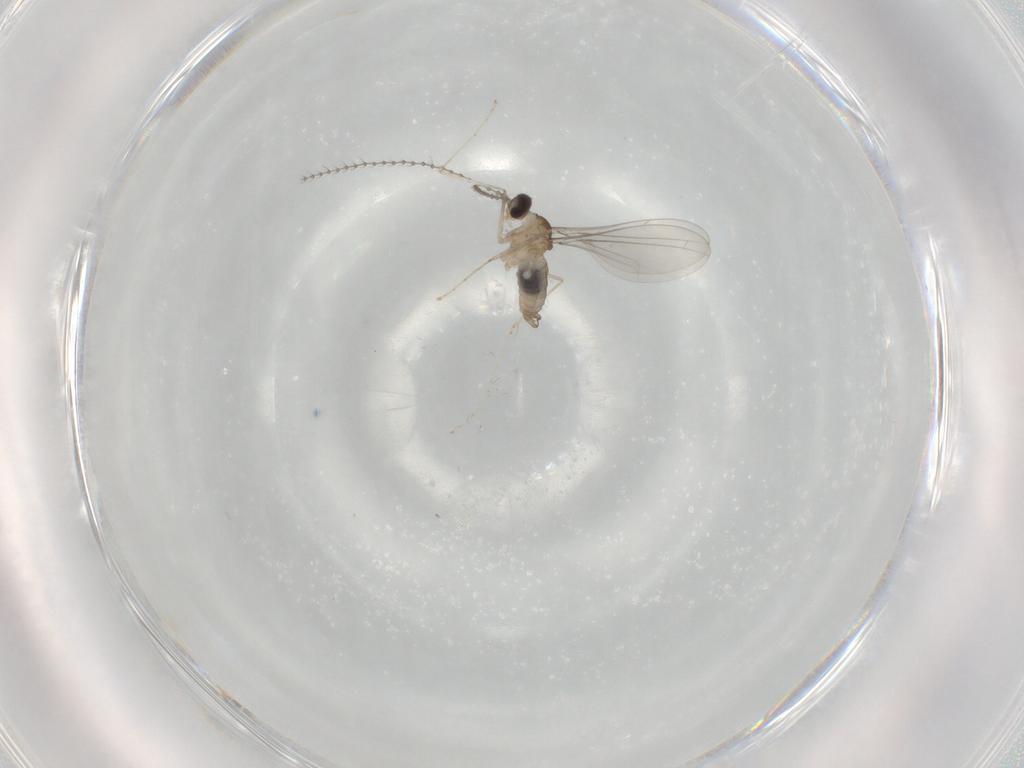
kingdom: Animalia
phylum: Arthropoda
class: Insecta
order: Diptera
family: Cecidomyiidae
